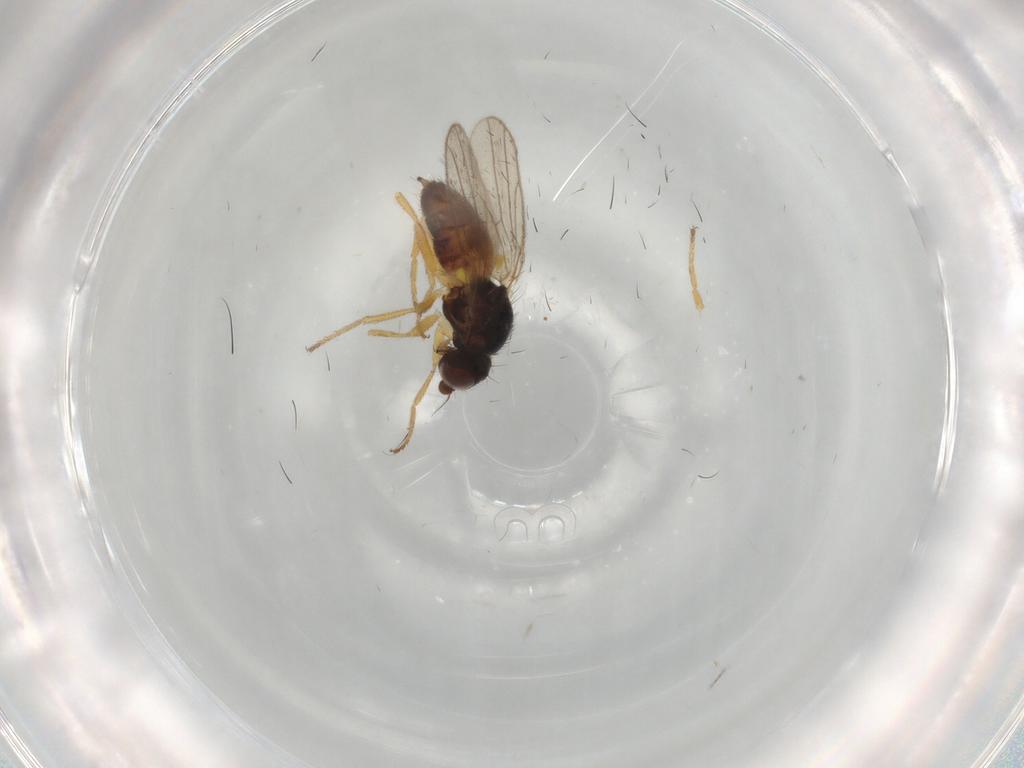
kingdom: Animalia
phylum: Arthropoda
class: Insecta
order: Diptera
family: Chloropidae
